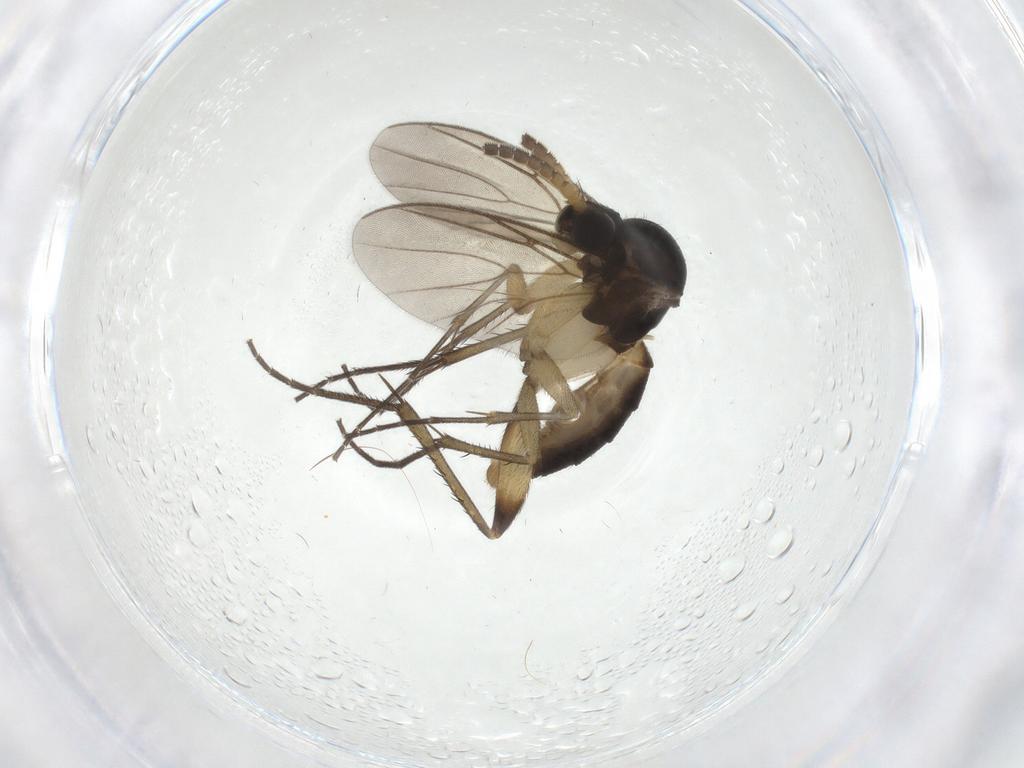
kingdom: Animalia
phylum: Arthropoda
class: Insecta
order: Diptera
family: Mycetophilidae
